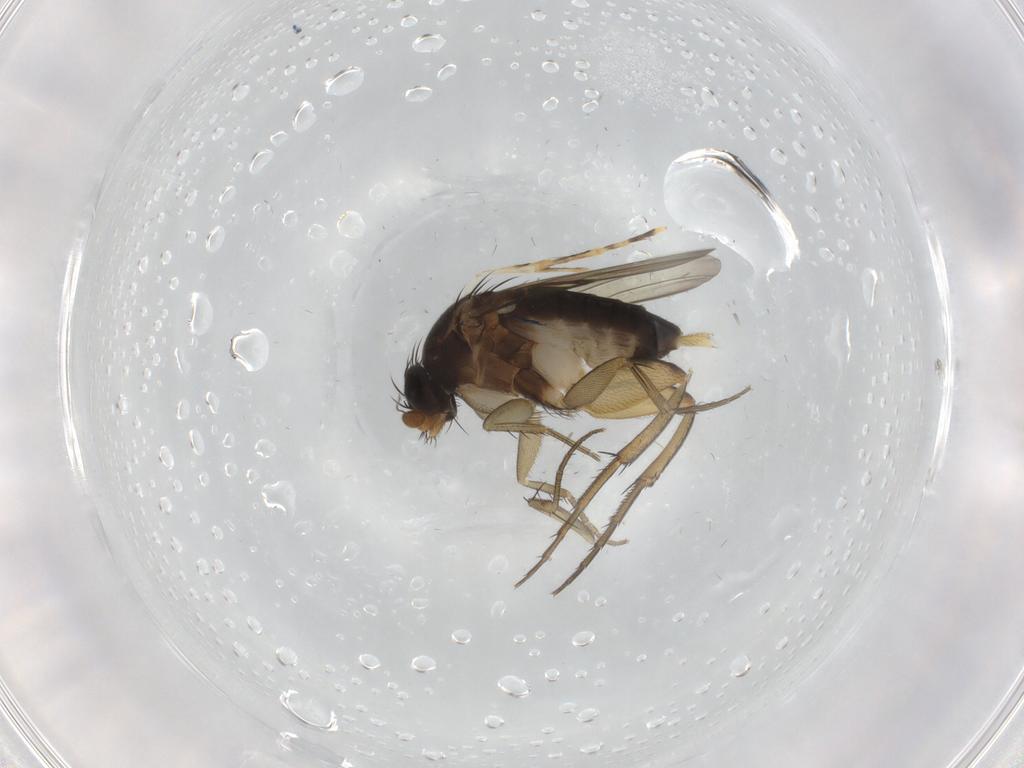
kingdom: Animalia
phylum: Arthropoda
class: Insecta
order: Diptera
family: Phoridae
